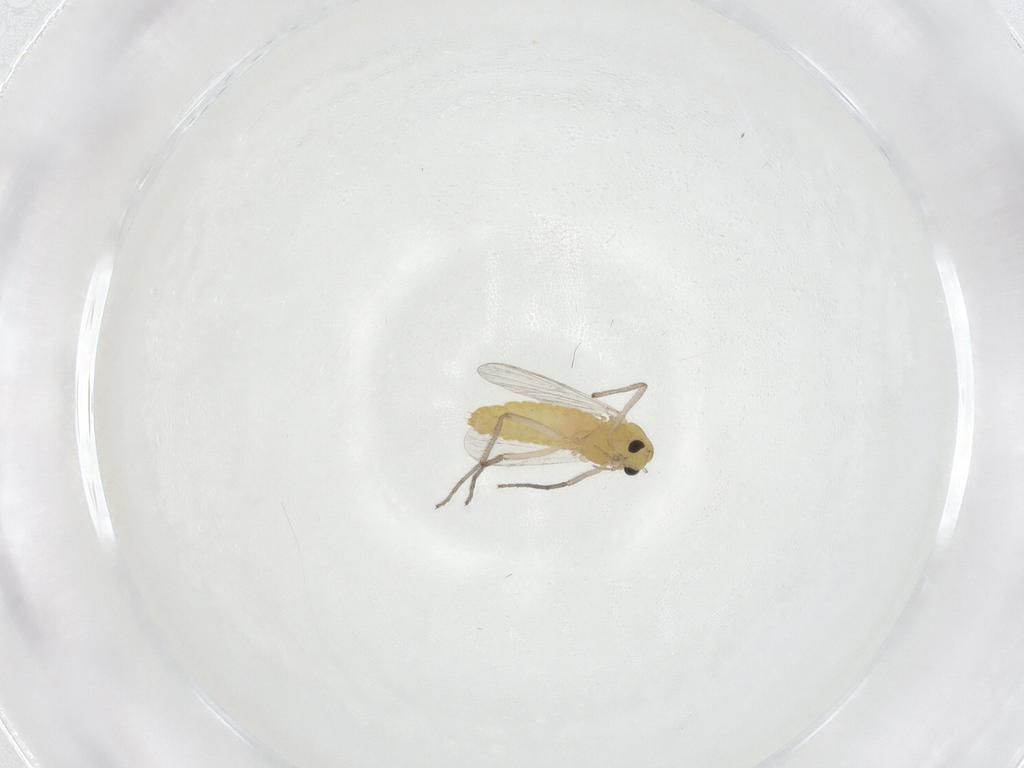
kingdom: Animalia
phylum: Arthropoda
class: Insecta
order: Diptera
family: Chironomidae
